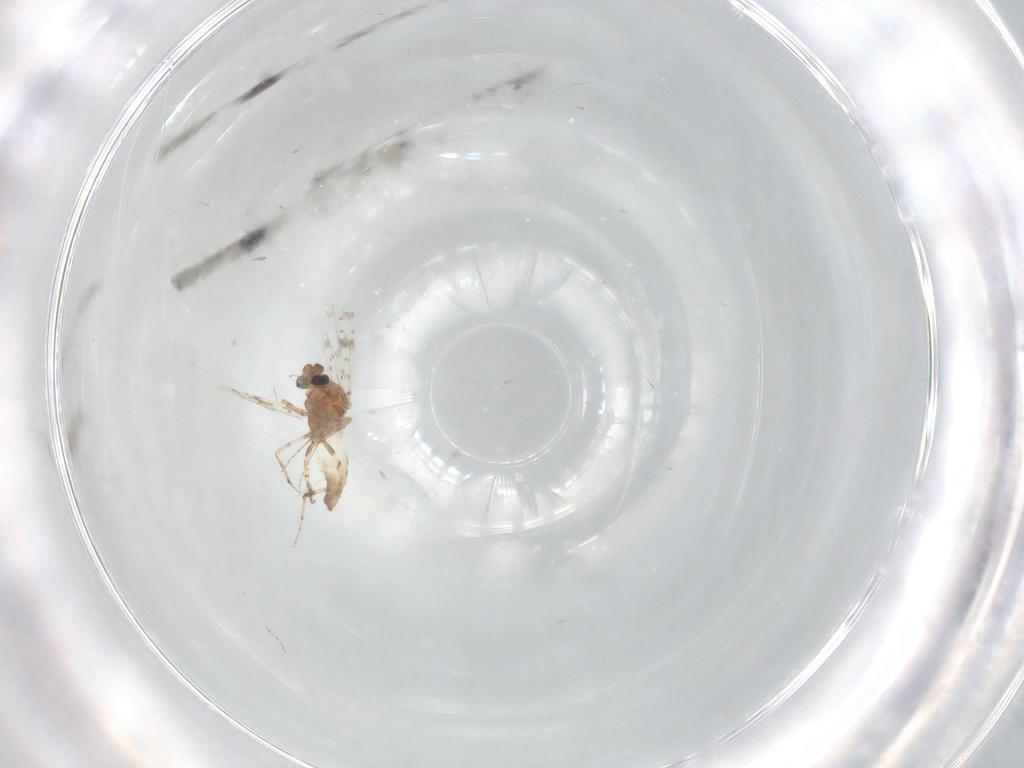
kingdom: Animalia
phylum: Arthropoda
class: Insecta
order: Diptera
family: Ceratopogonidae
